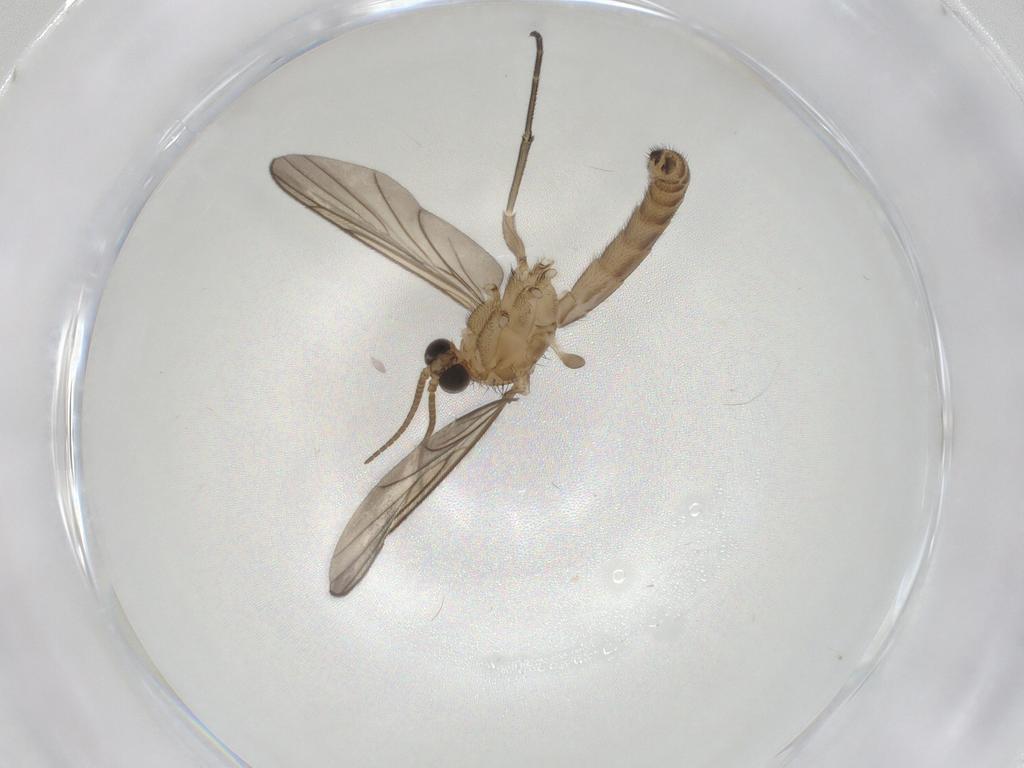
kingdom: Animalia
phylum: Arthropoda
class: Insecta
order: Diptera
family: Keroplatidae
